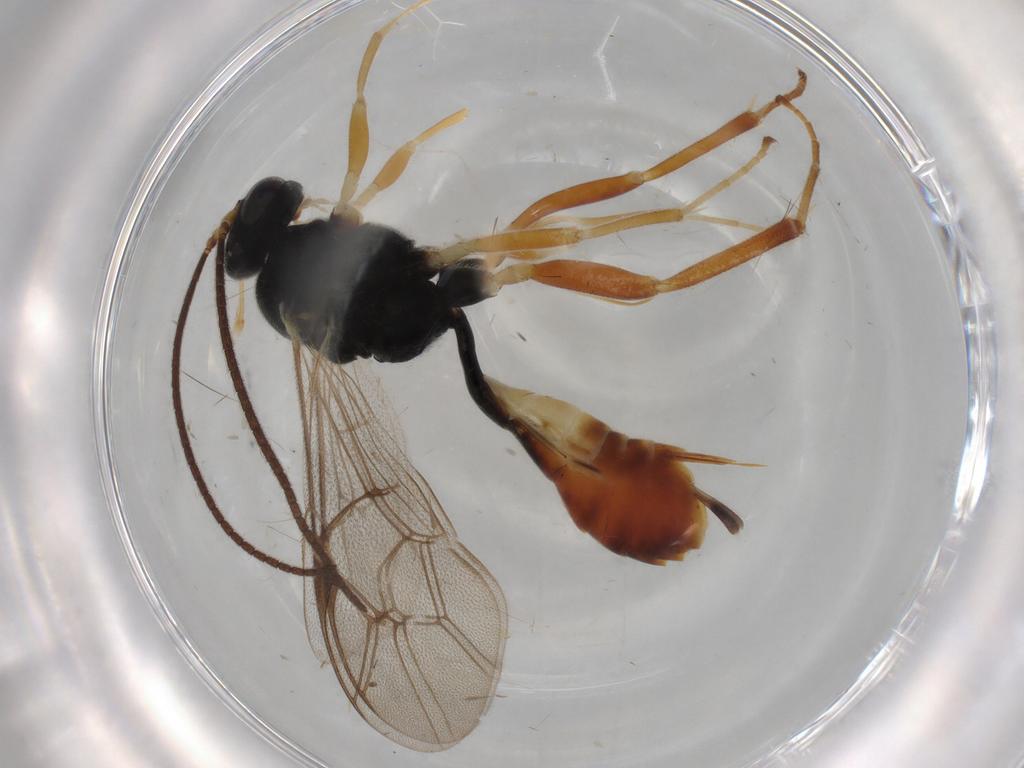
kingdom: Animalia
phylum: Arthropoda
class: Insecta
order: Hymenoptera
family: Ichneumonidae
